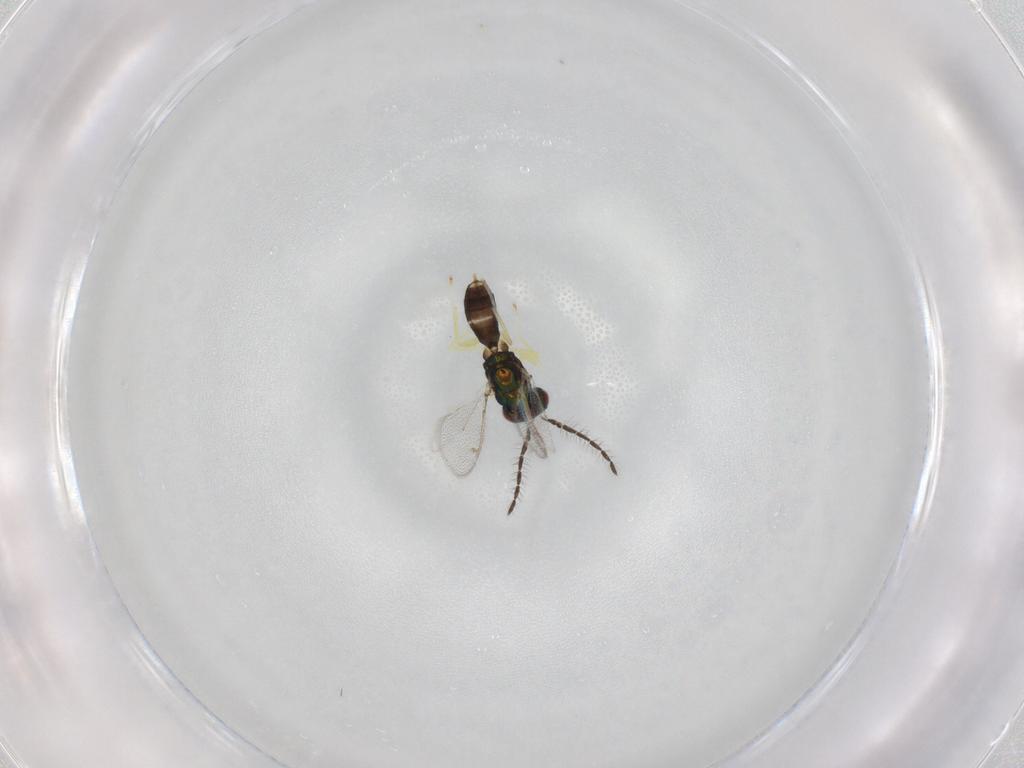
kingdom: Animalia
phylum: Arthropoda
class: Insecta
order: Hymenoptera
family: Eulophidae
